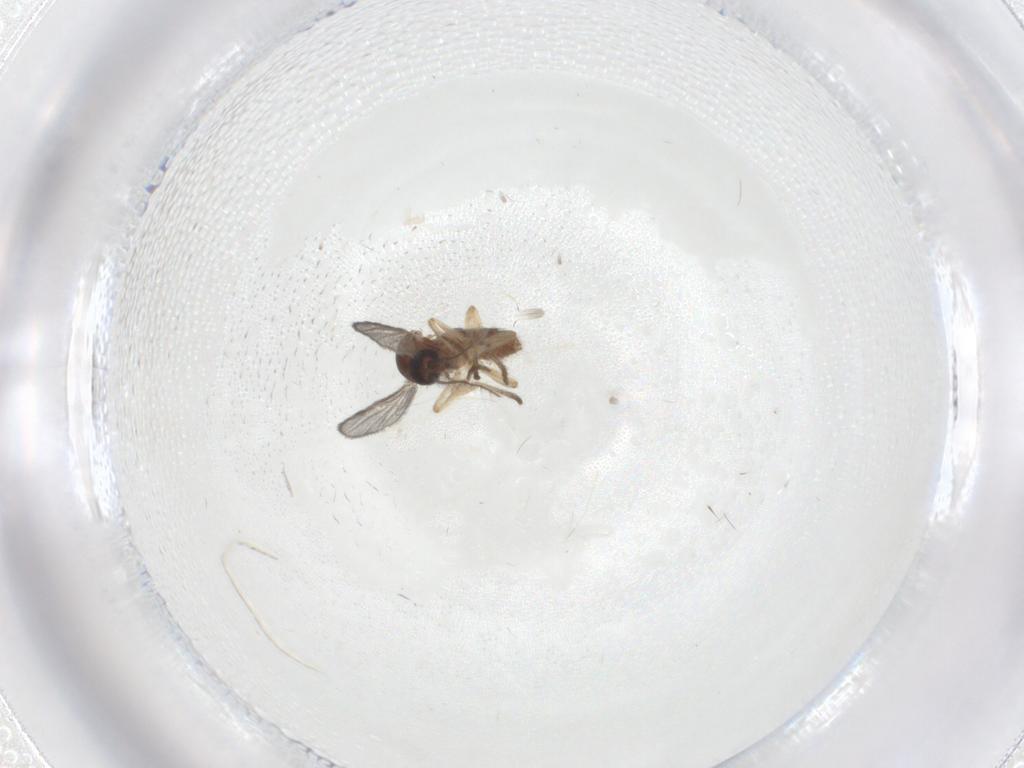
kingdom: Animalia
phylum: Arthropoda
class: Insecta
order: Diptera
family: Ceratopogonidae
